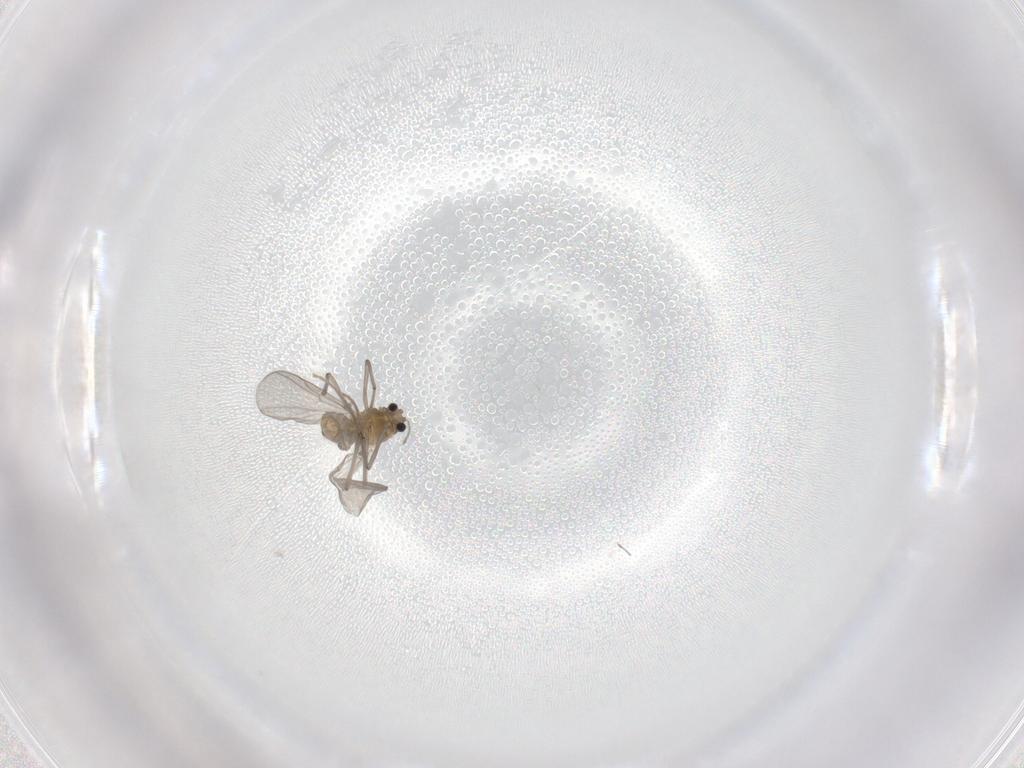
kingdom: Animalia
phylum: Arthropoda
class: Insecta
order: Diptera
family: Chironomidae
